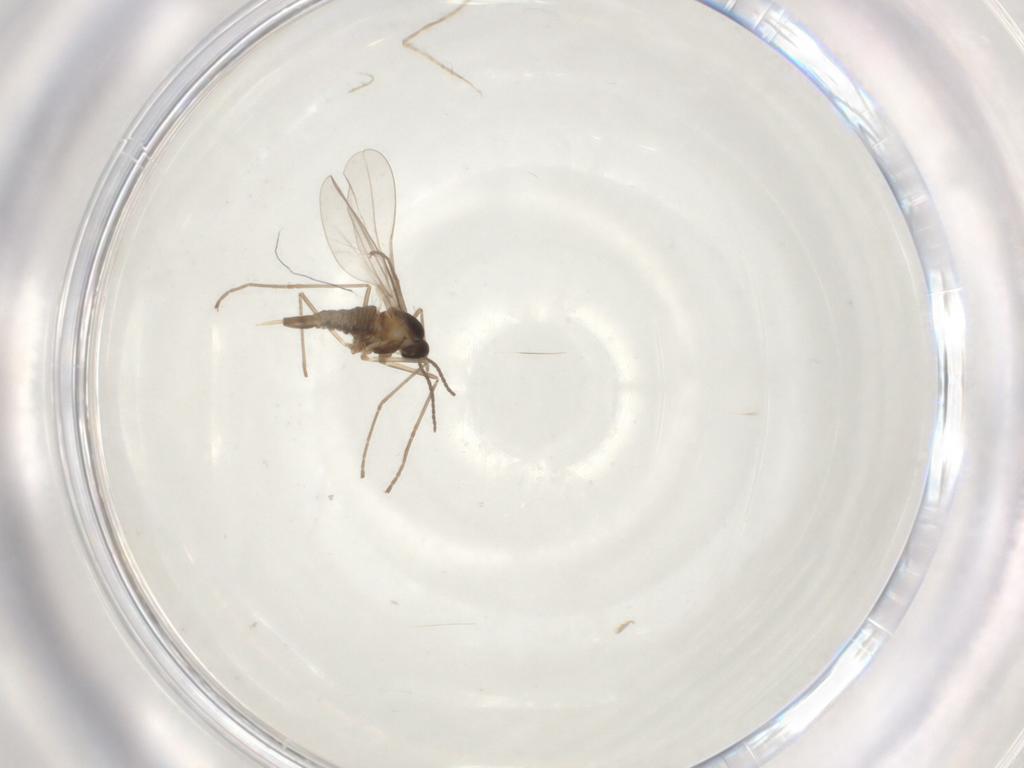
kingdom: Animalia
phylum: Arthropoda
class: Insecta
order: Diptera
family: Cecidomyiidae
